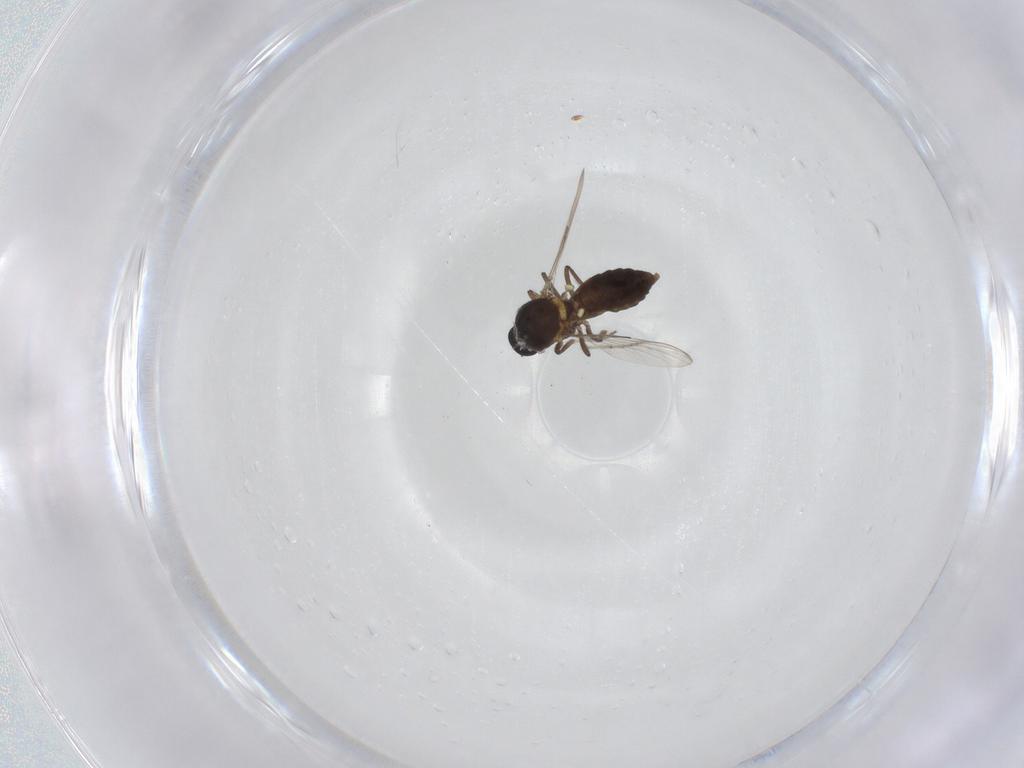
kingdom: Animalia
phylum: Arthropoda
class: Insecta
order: Diptera
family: Ceratopogonidae
